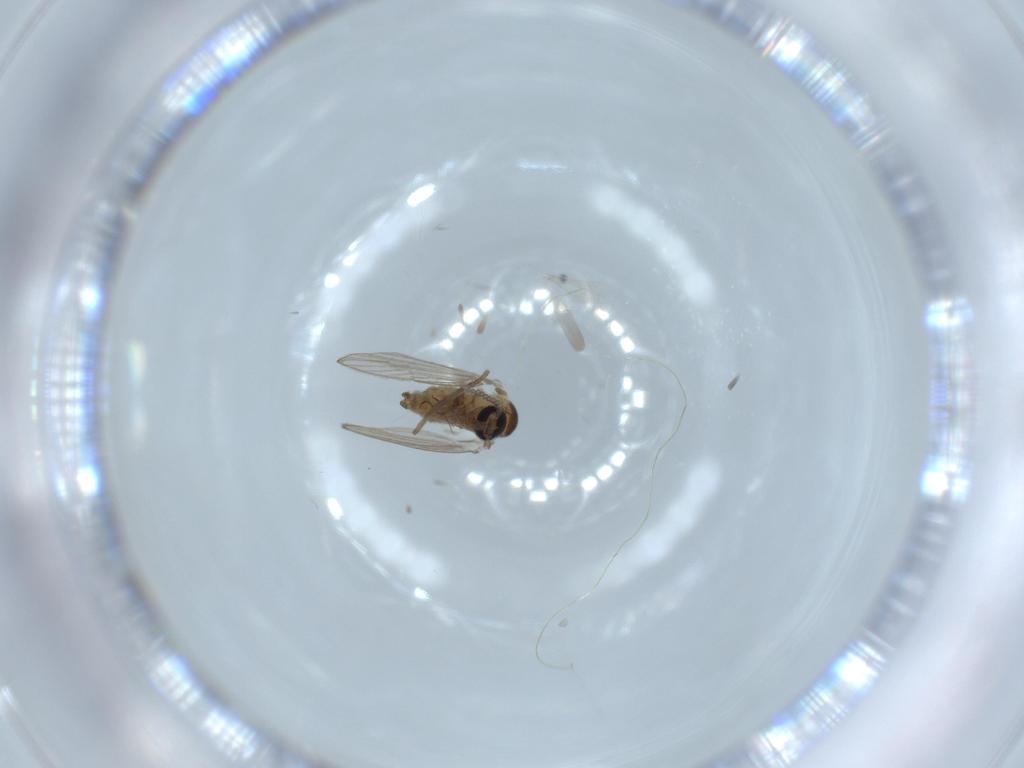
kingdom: Animalia
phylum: Arthropoda
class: Insecta
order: Diptera
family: Psychodidae
